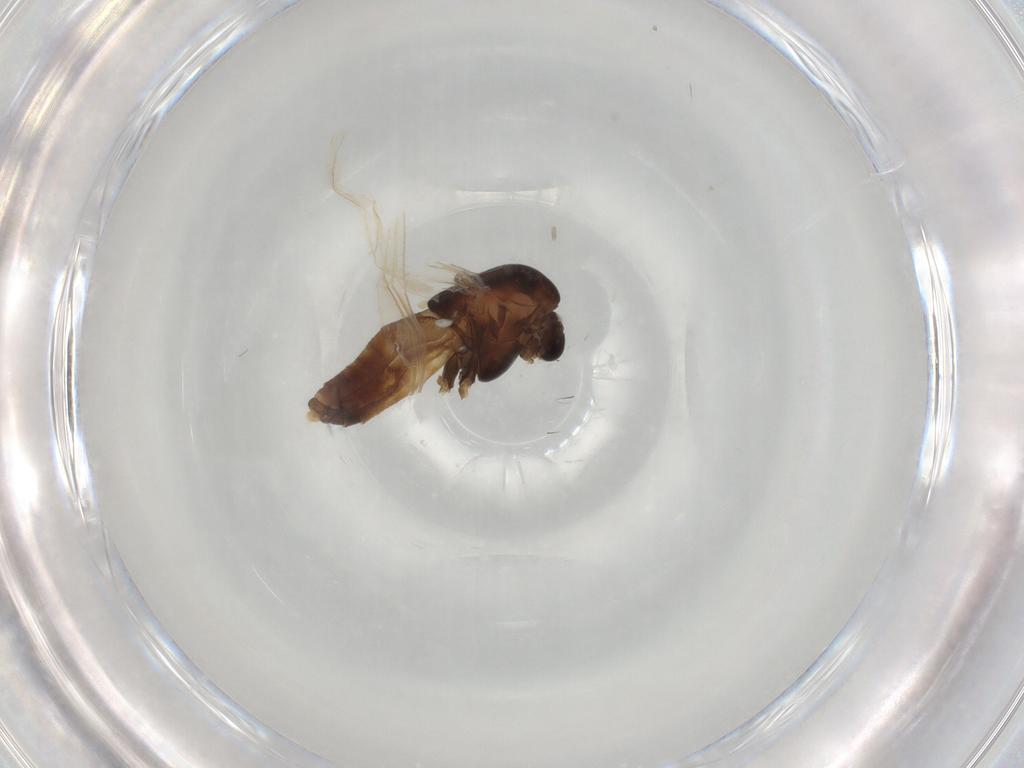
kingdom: Animalia
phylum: Arthropoda
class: Insecta
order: Diptera
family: Chironomidae
